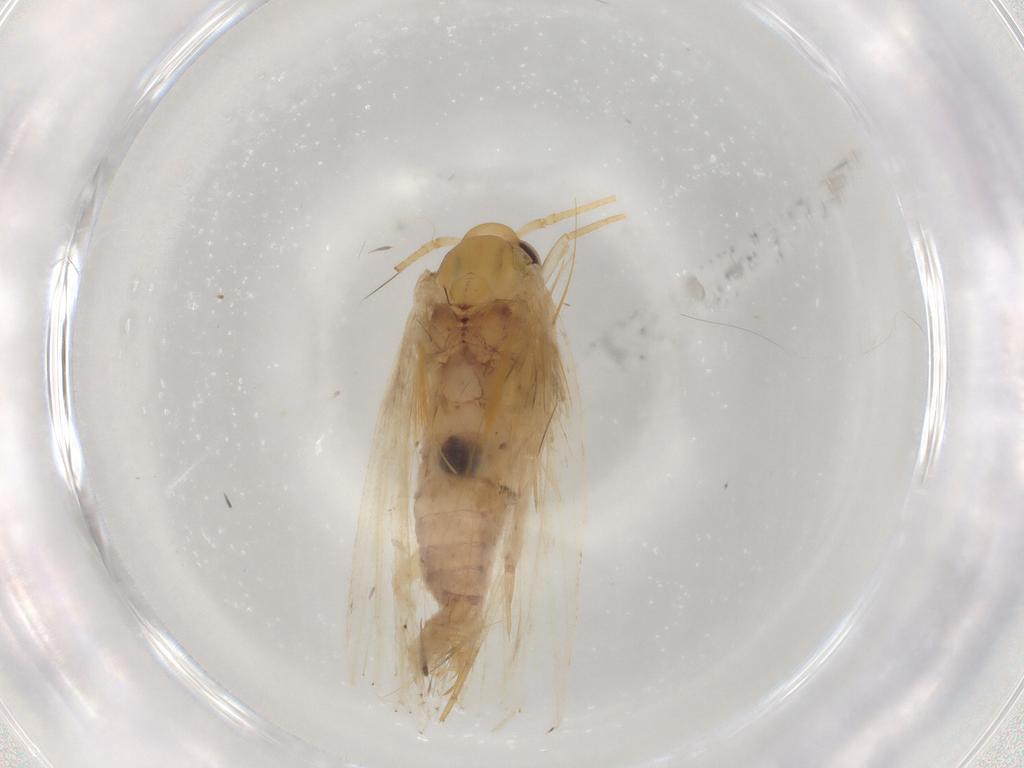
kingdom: Animalia
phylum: Arthropoda
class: Insecta
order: Lepidoptera
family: Depressariidae
